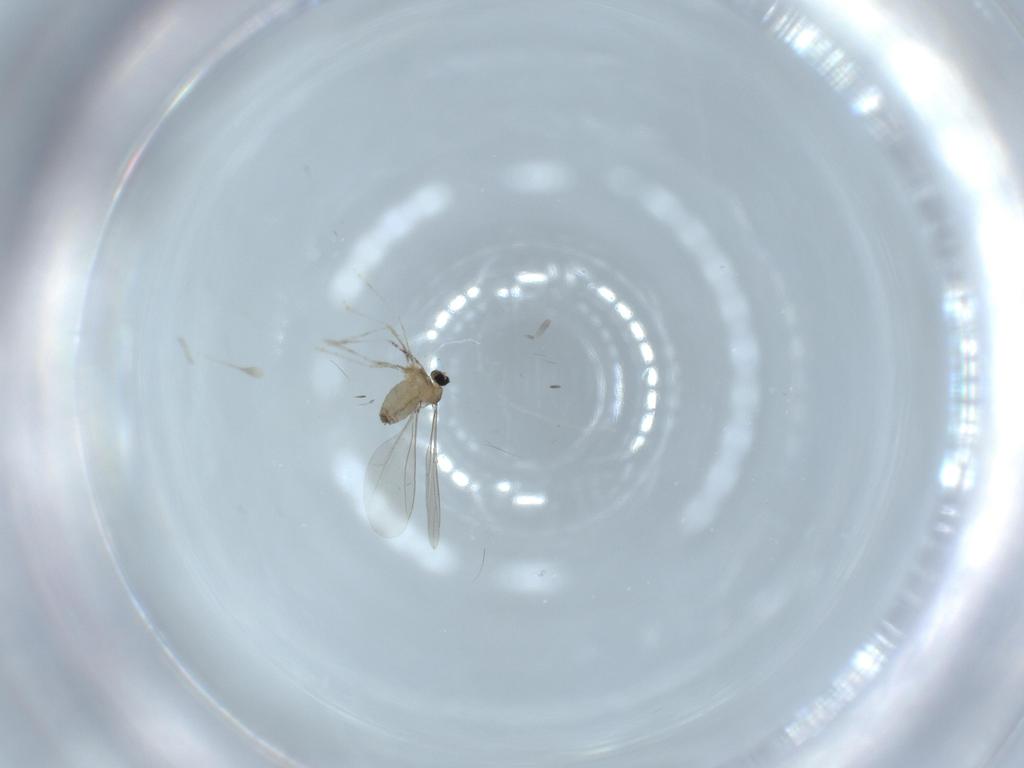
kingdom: Animalia
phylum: Arthropoda
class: Insecta
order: Diptera
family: Cecidomyiidae
